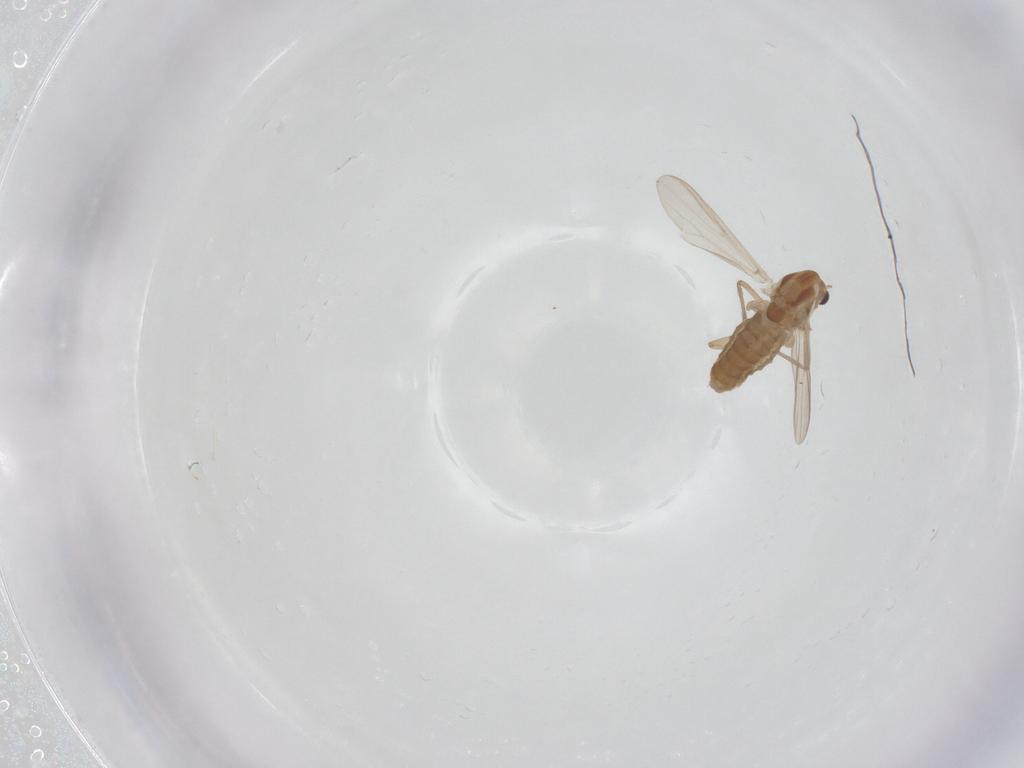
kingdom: Animalia
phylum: Arthropoda
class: Insecta
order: Diptera
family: Chironomidae
